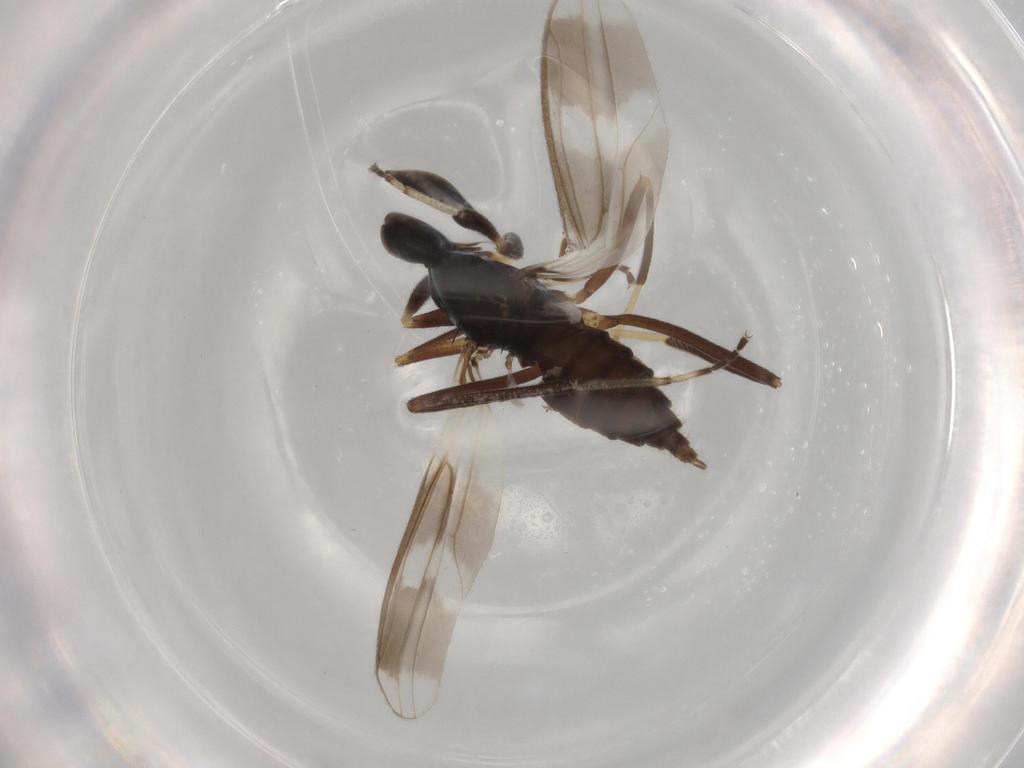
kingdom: Animalia
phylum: Arthropoda
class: Insecta
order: Diptera
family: Hybotidae
